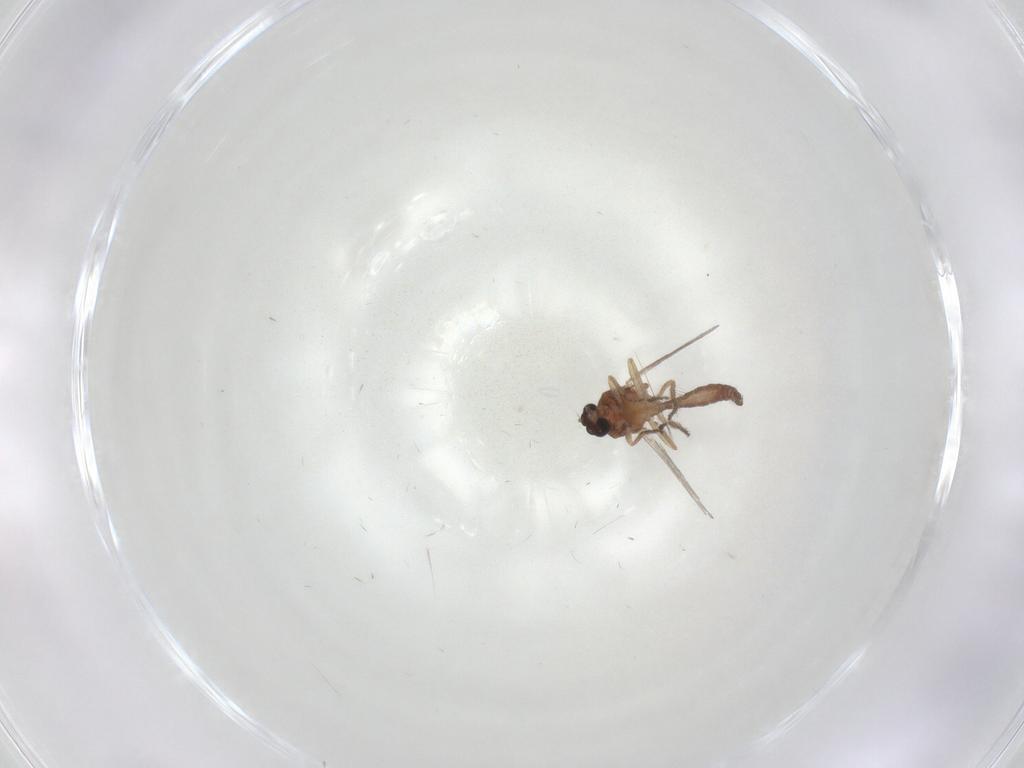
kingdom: Animalia
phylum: Arthropoda
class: Insecta
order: Diptera
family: Ceratopogonidae
